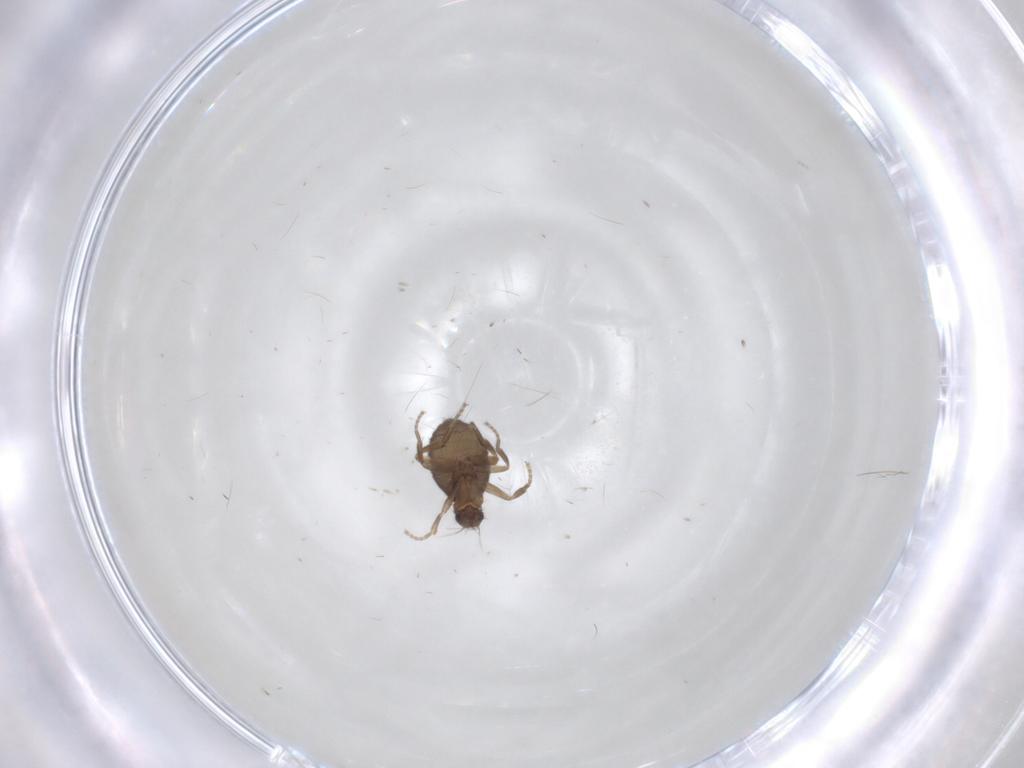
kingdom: Animalia
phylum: Arthropoda
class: Insecta
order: Diptera
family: Phoridae
